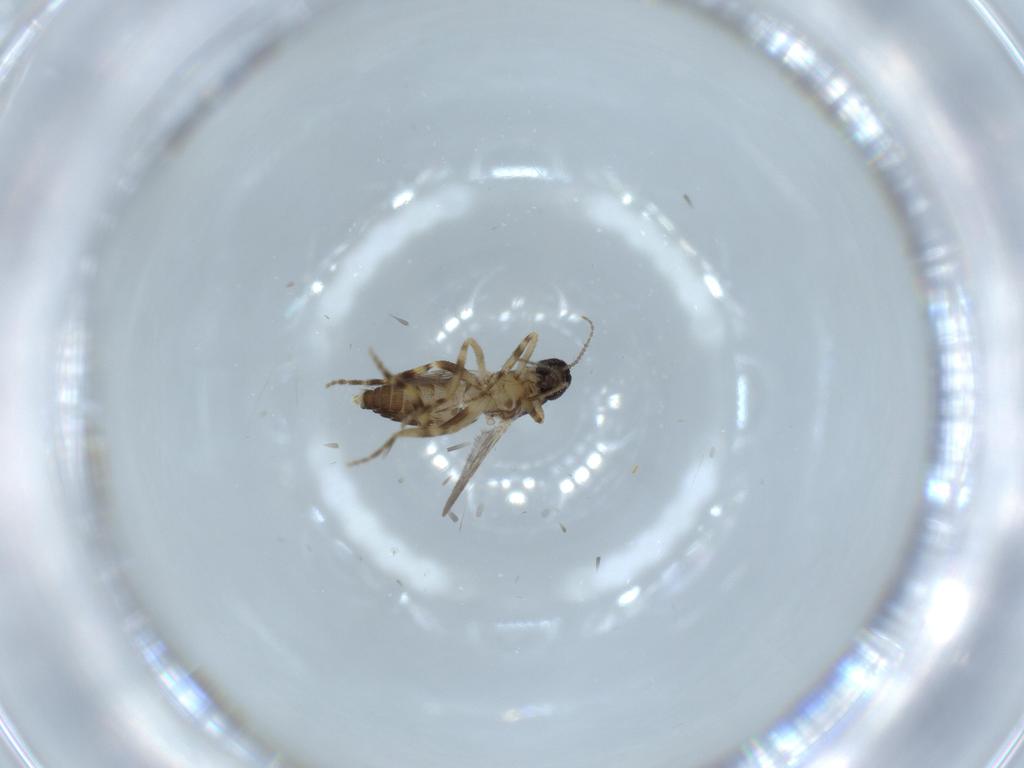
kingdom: Animalia
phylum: Arthropoda
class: Insecta
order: Diptera
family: Ceratopogonidae
